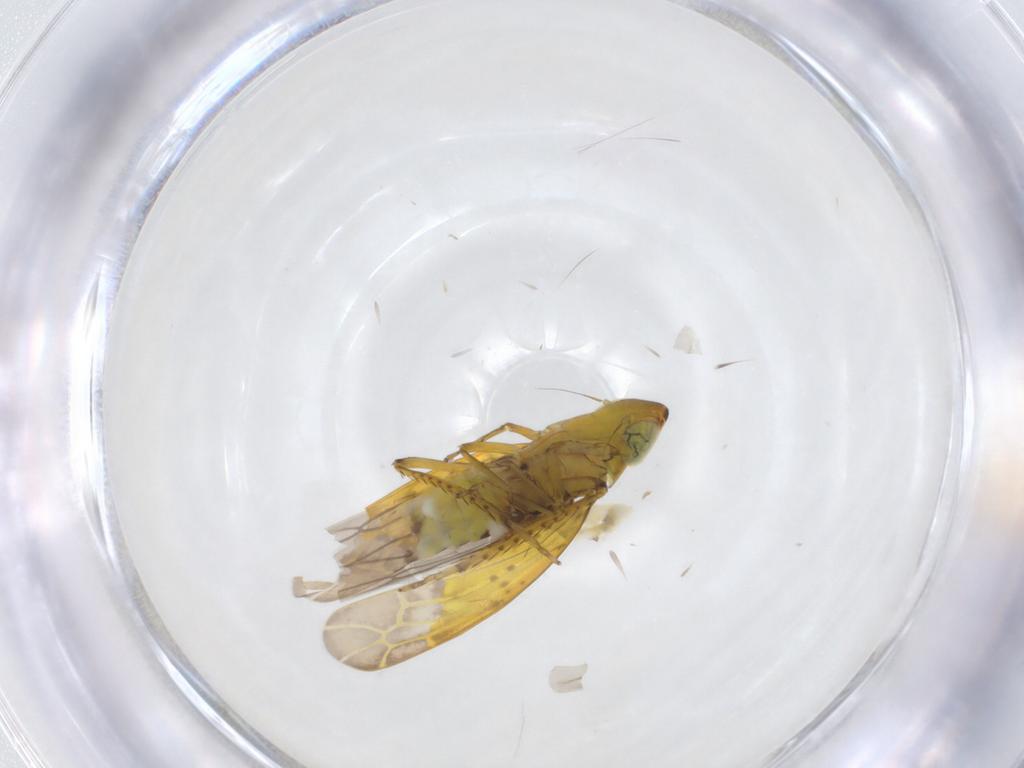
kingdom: Animalia
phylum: Arthropoda
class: Insecta
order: Hemiptera
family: Cicadellidae
